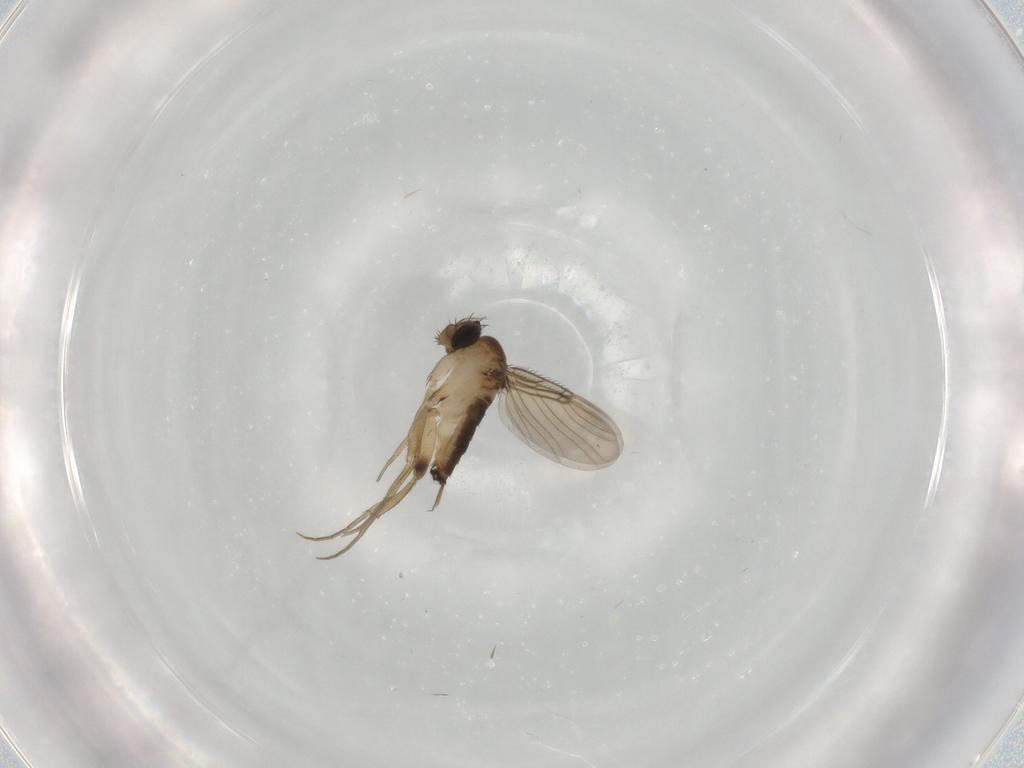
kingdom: Animalia
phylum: Arthropoda
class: Insecta
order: Diptera
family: Phoridae
